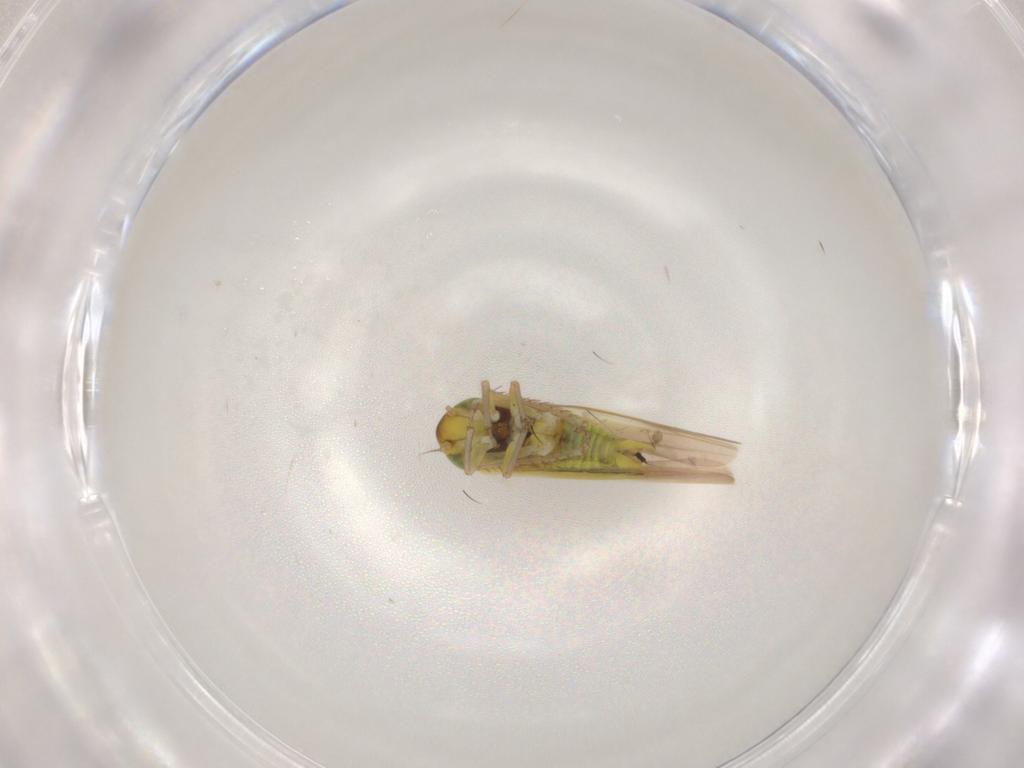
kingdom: Animalia
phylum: Arthropoda
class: Insecta
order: Hemiptera
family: Cicadellidae
